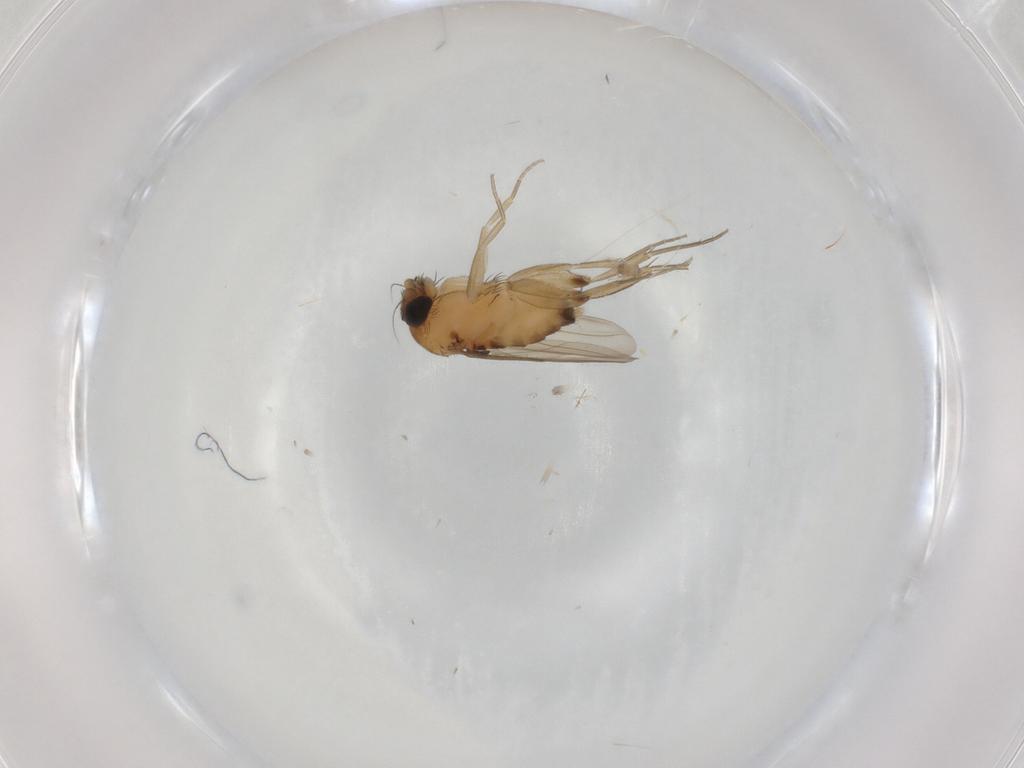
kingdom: Animalia
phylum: Arthropoda
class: Insecta
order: Diptera
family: Phoridae
